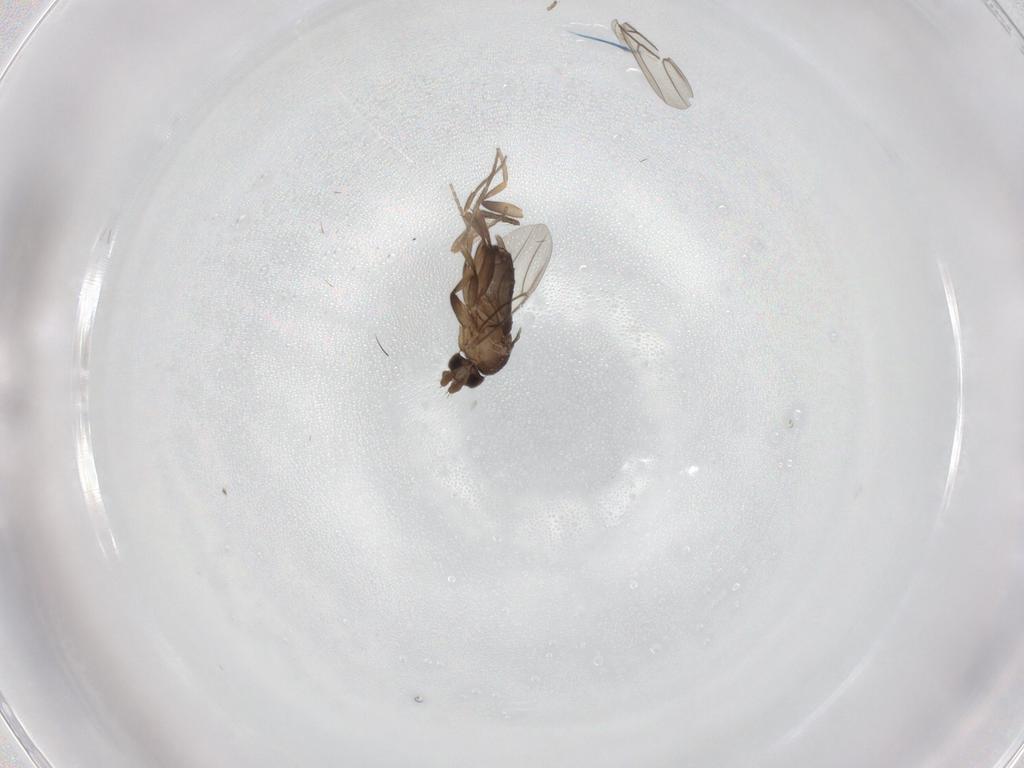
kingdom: Animalia
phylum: Arthropoda
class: Insecta
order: Diptera
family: Phoridae
